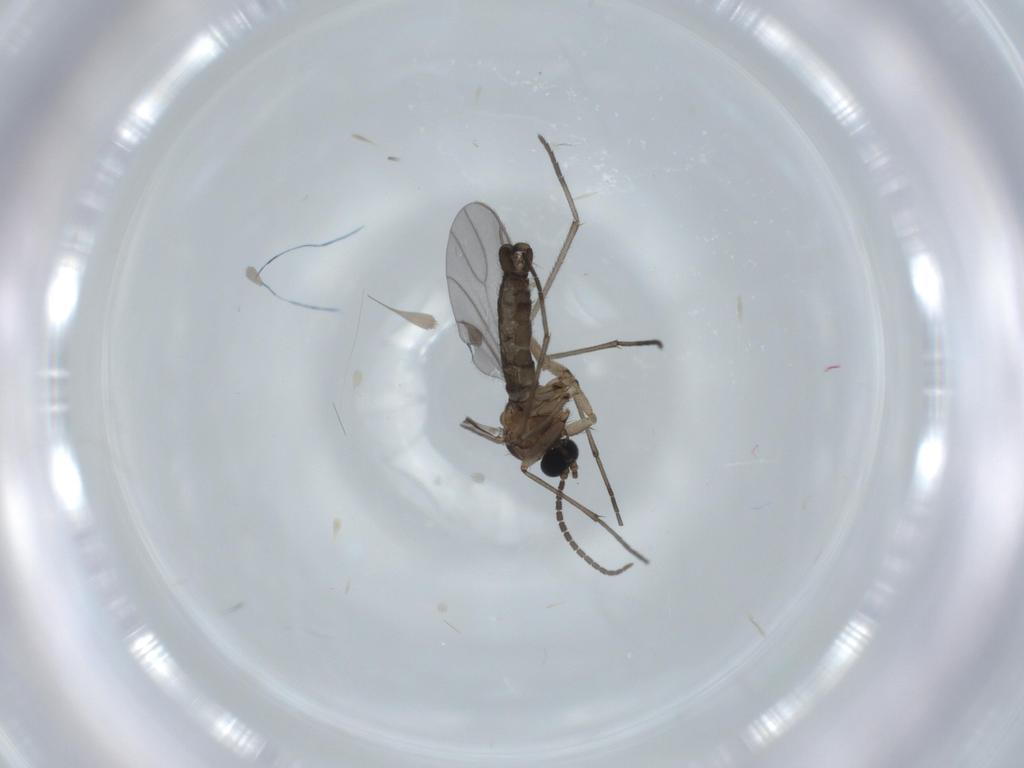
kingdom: Animalia
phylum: Arthropoda
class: Insecta
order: Diptera
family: Sciaridae
